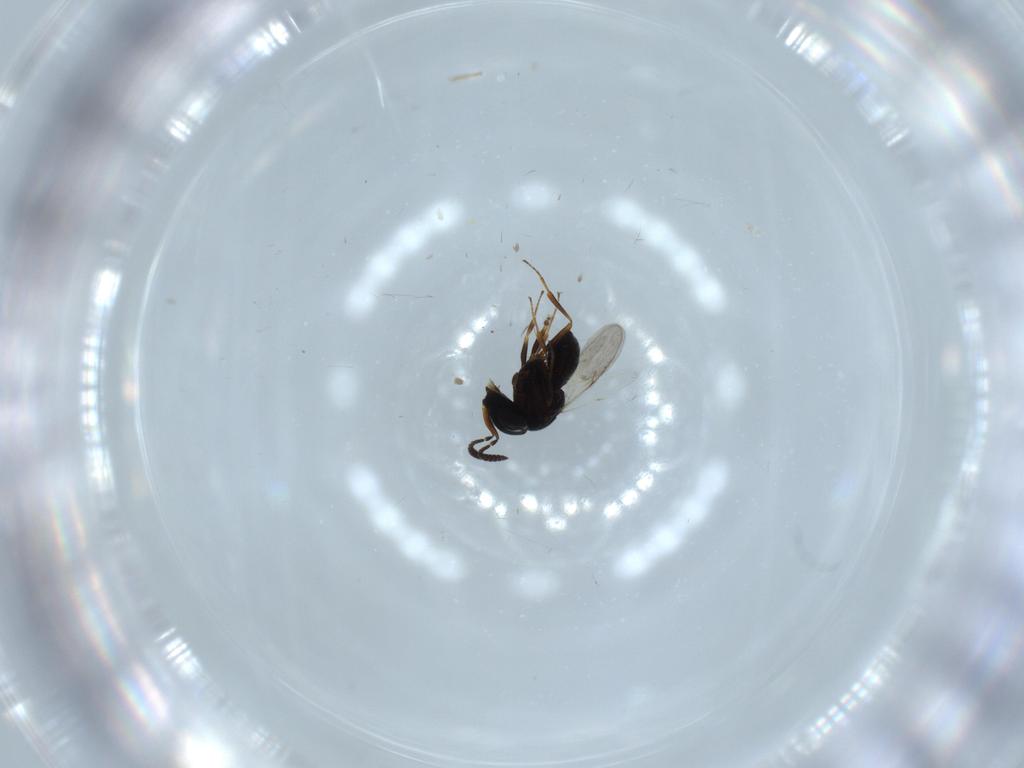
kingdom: Animalia
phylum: Arthropoda
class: Insecta
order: Hymenoptera
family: Scelionidae
